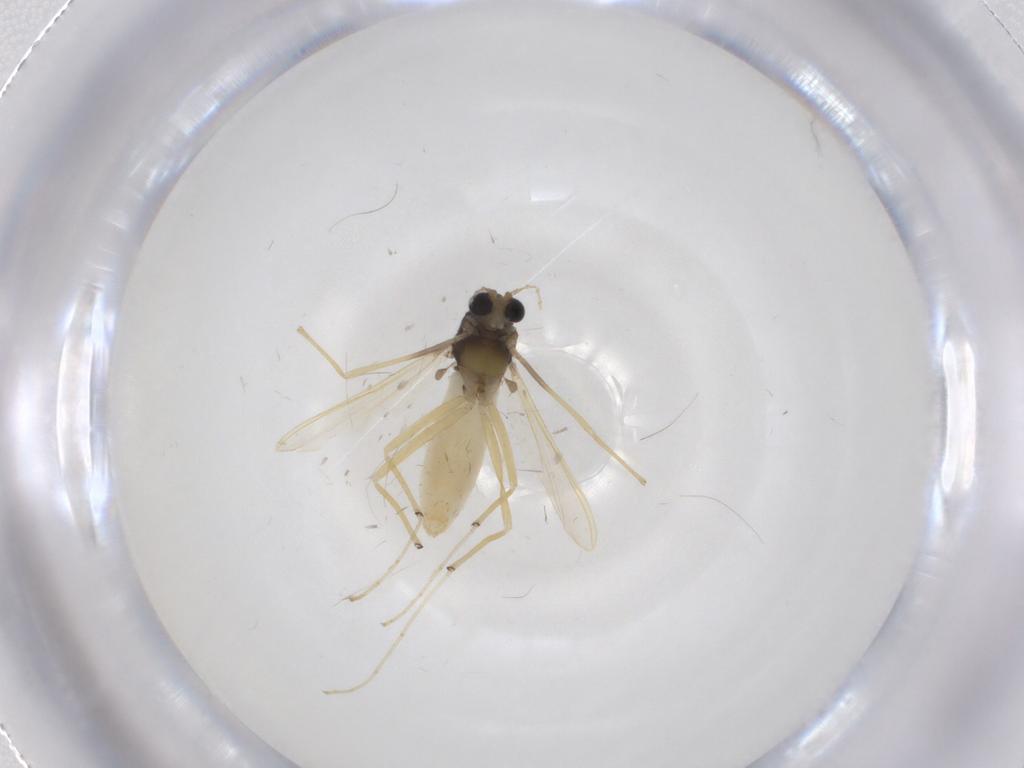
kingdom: Animalia
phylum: Arthropoda
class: Insecta
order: Diptera
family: Chironomidae
